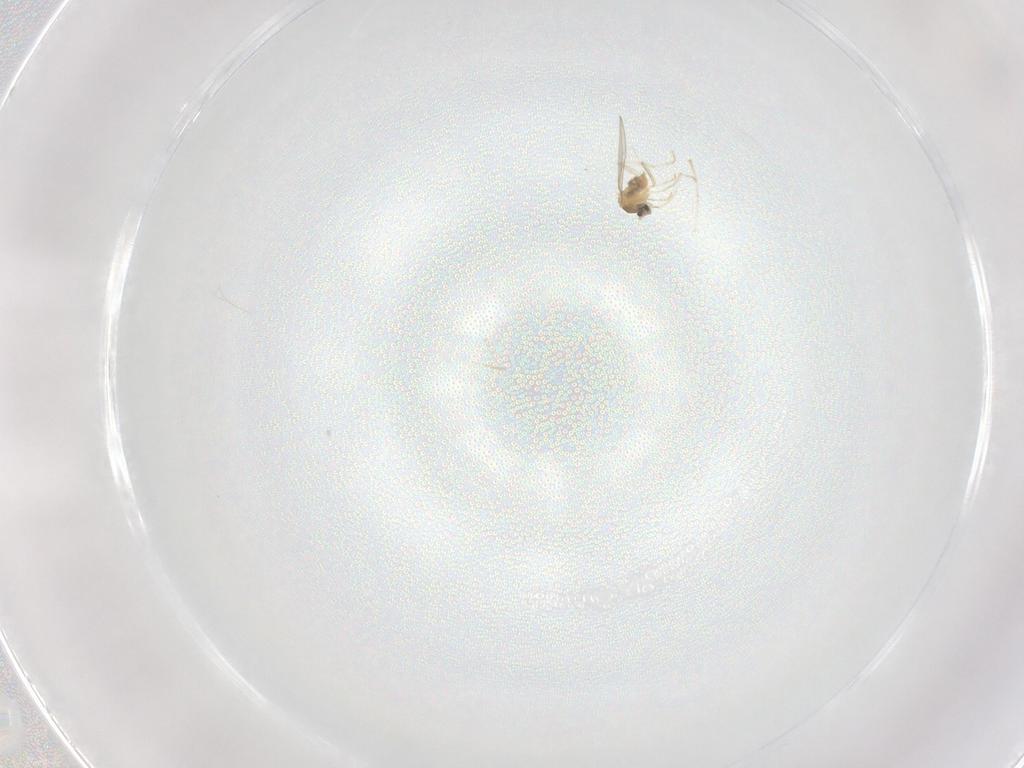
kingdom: Animalia
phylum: Arthropoda
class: Insecta
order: Diptera
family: Cecidomyiidae
